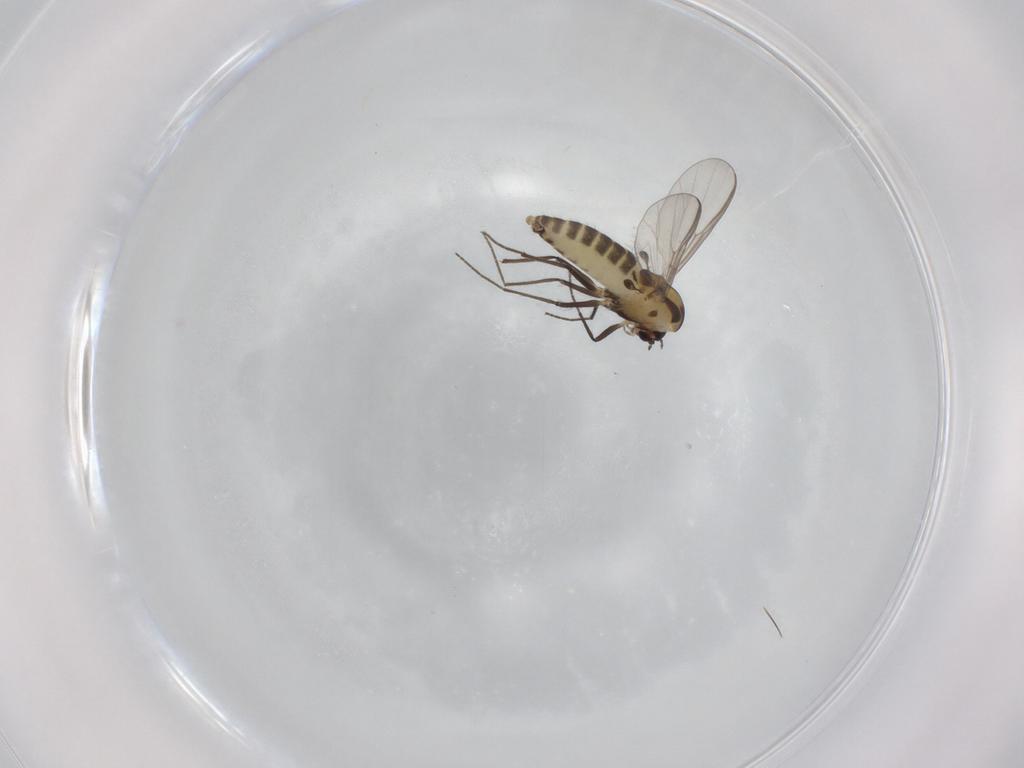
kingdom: Animalia
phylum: Arthropoda
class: Insecta
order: Diptera
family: Chironomidae
